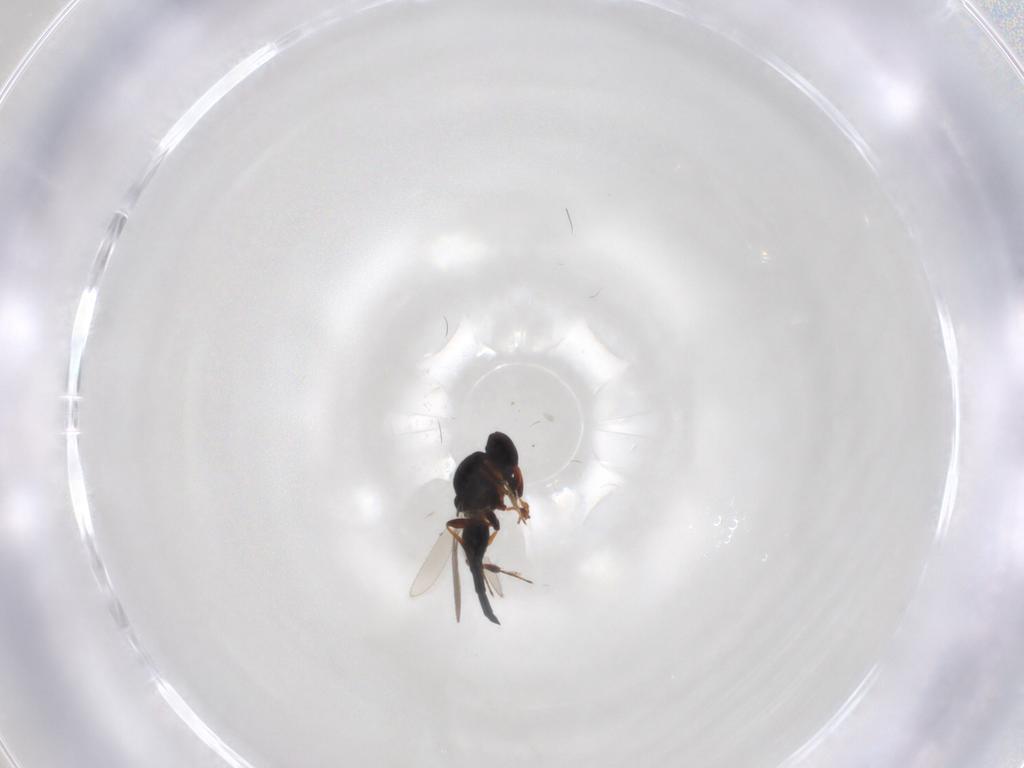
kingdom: Animalia
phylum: Arthropoda
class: Insecta
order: Hymenoptera
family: Platygastridae
